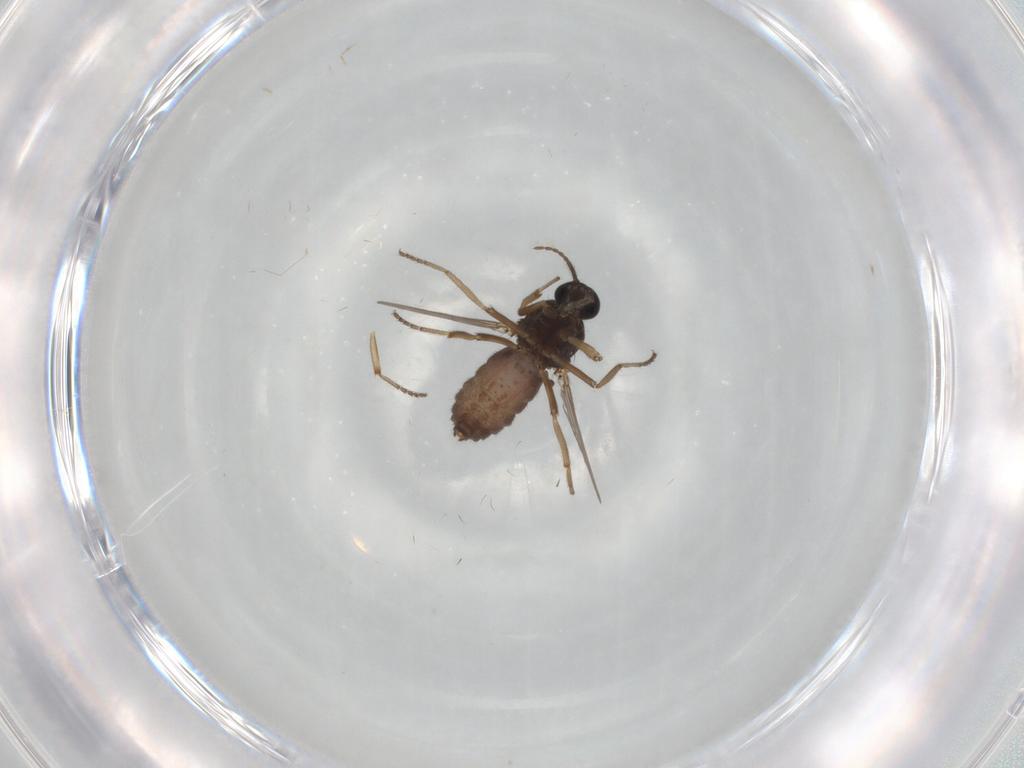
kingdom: Animalia
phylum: Arthropoda
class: Insecta
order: Diptera
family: Ceratopogonidae
